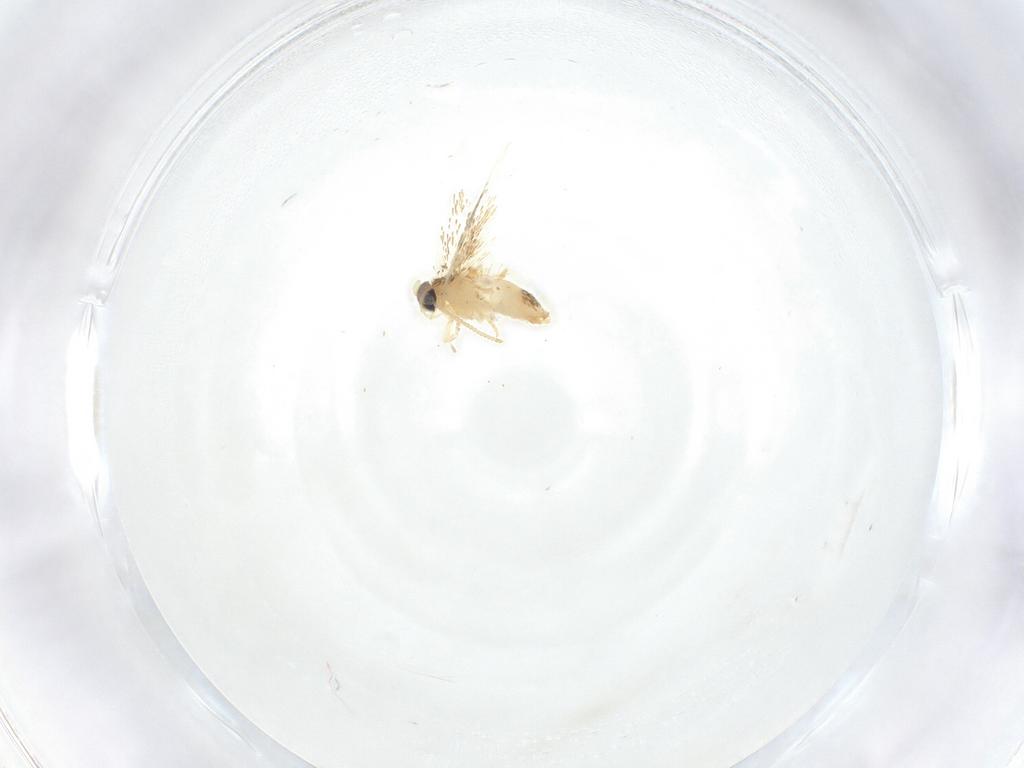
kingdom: Animalia
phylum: Arthropoda
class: Insecta
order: Lepidoptera
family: Nepticulidae
